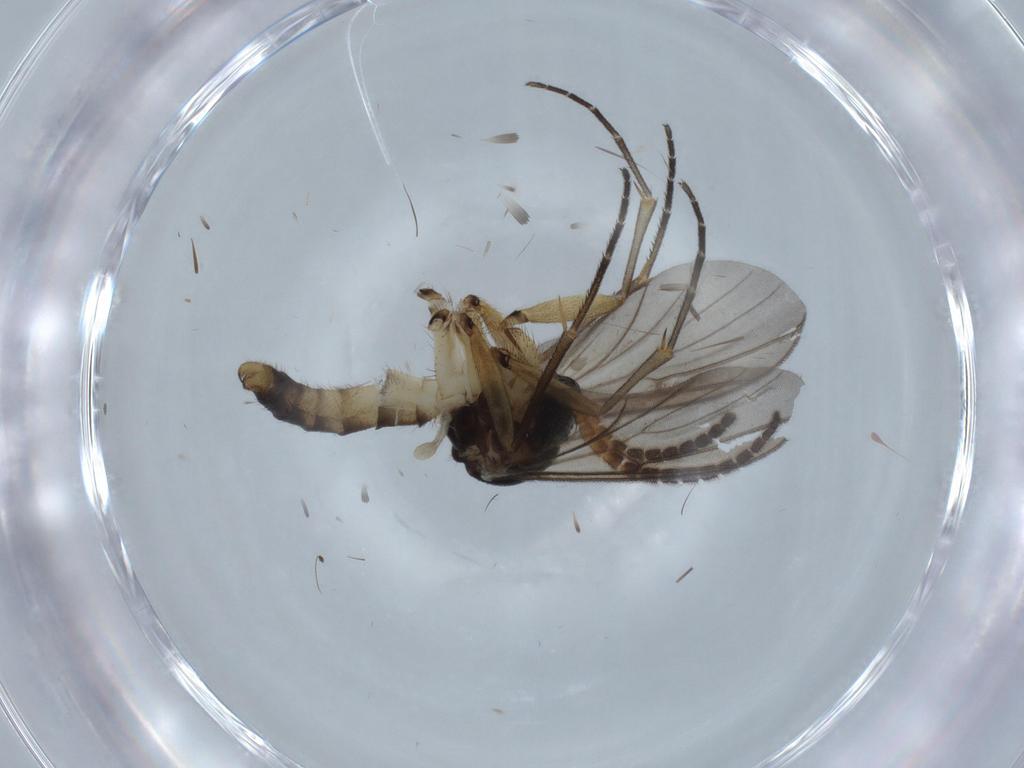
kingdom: Animalia
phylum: Arthropoda
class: Insecta
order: Diptera
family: Mycetophilidae
